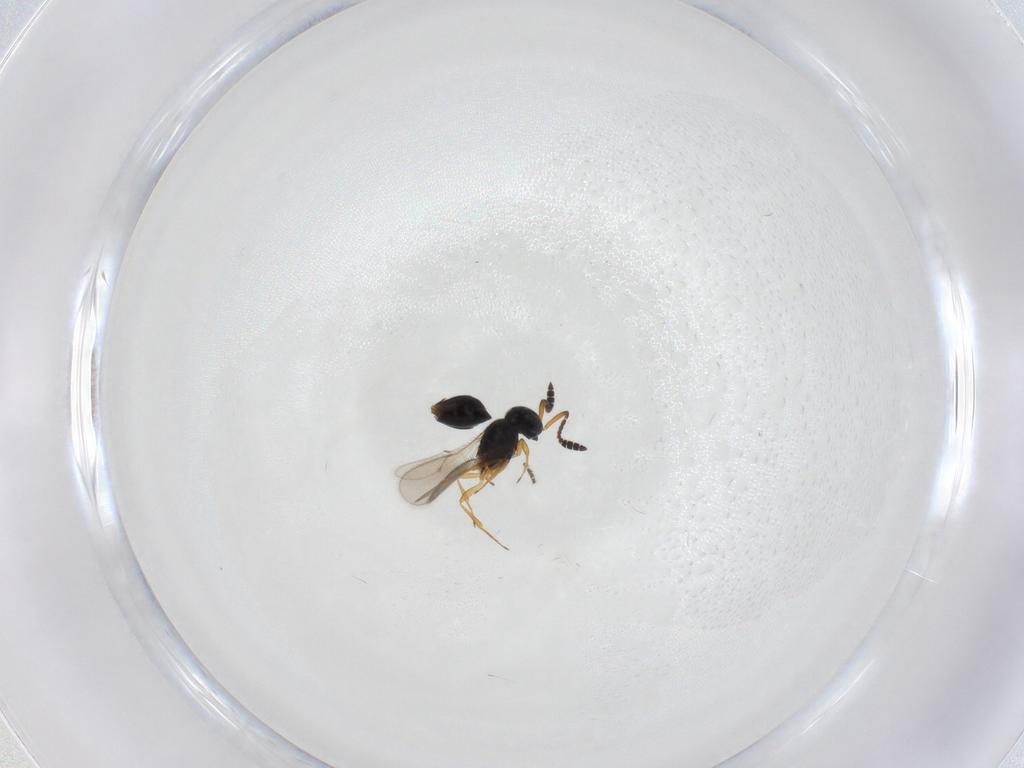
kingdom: Animalia
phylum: Arthropoda
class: Insecta
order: Hymenoptera
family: Scelionidae
